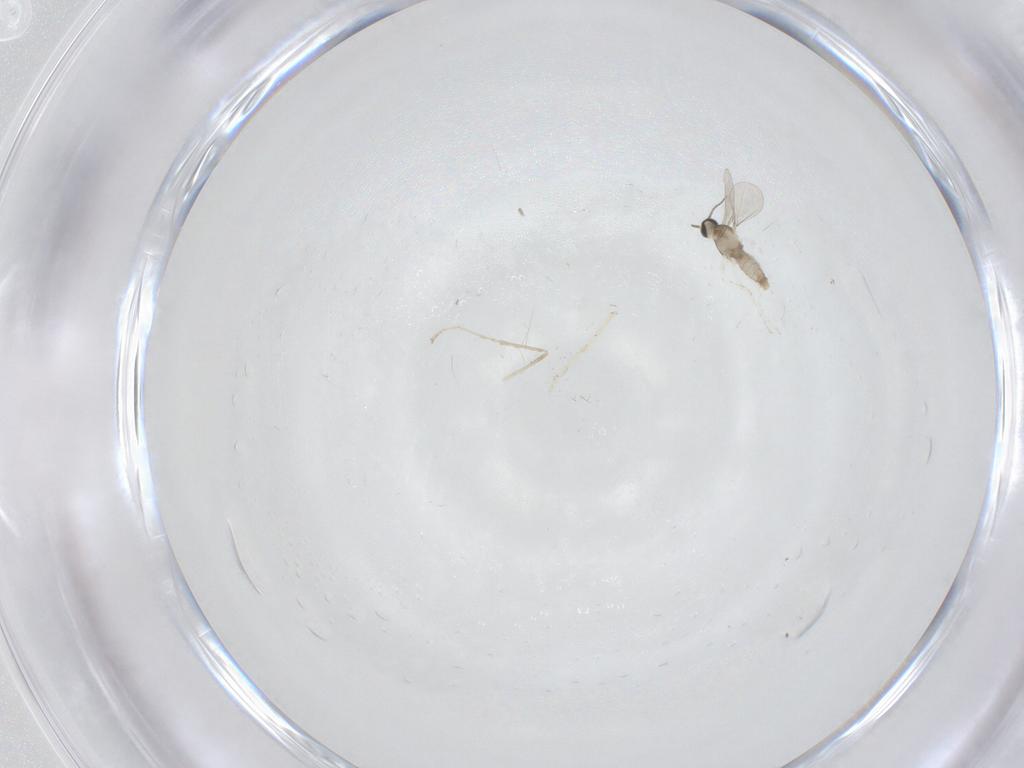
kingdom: Animalia
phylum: Arthropoda
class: Insecta
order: Diptera
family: Cecidomyiidae
